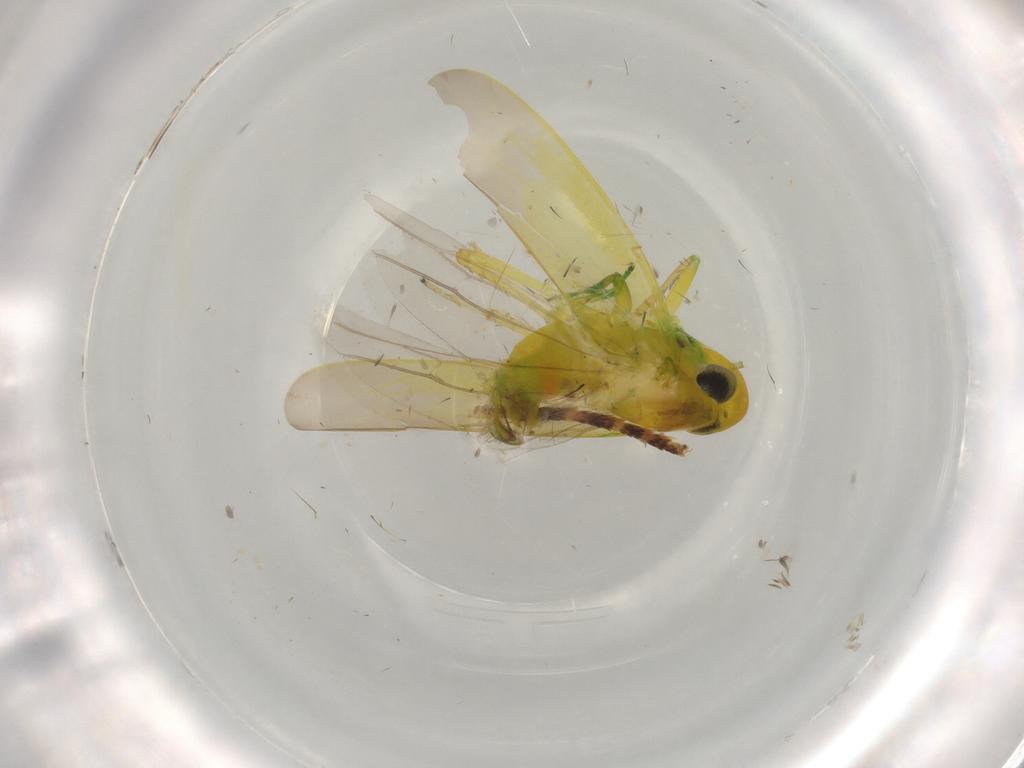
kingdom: Animalia
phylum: Arthropoda
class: Insecta
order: Hemiptera
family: Cicadellidae
